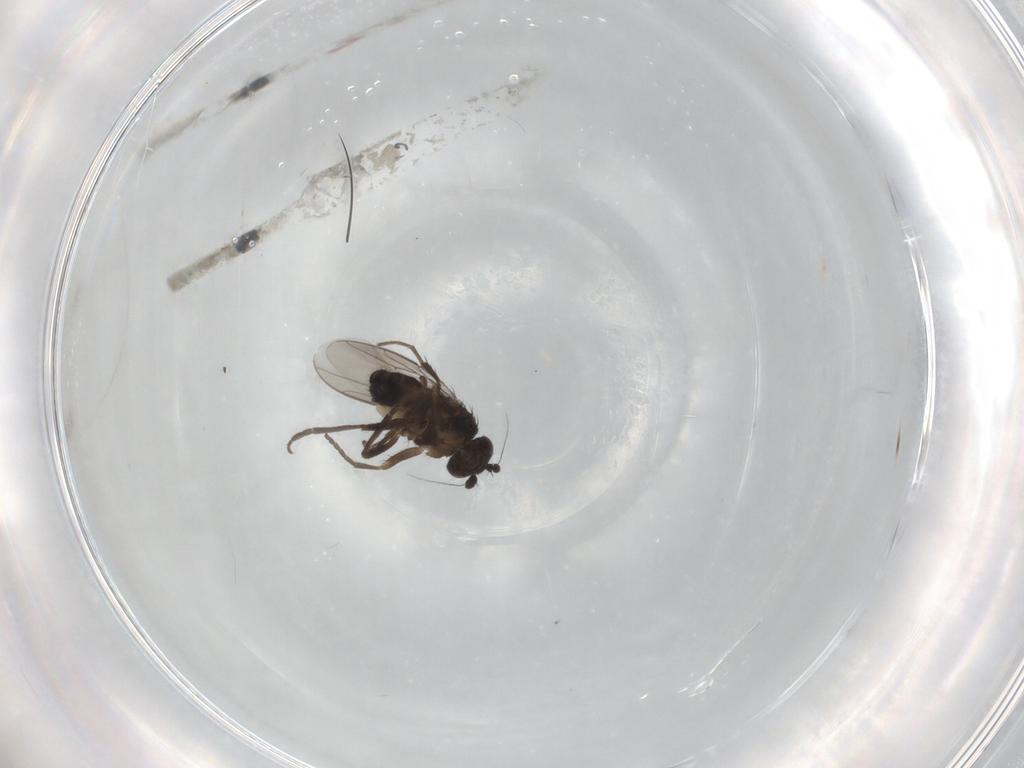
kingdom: Animalia
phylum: Arthropoda
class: Insecta
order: Diptera
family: Sphaeroceridae
